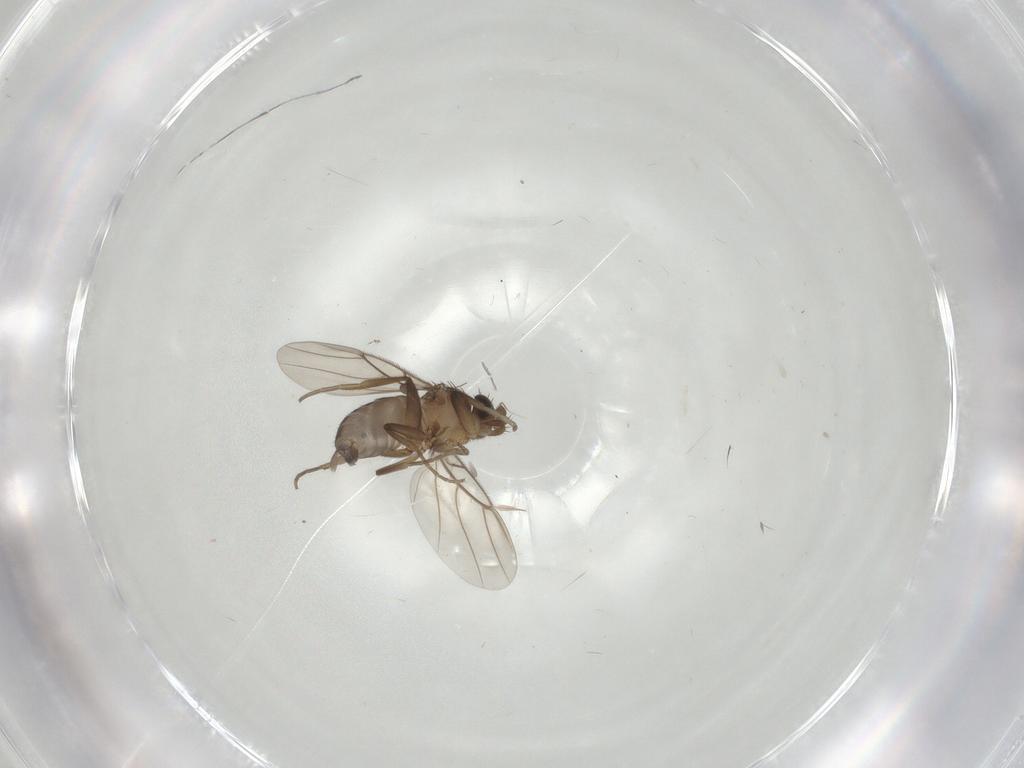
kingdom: Animalia
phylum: Arthropoda
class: Insecta
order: Diptera
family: Phoridae
